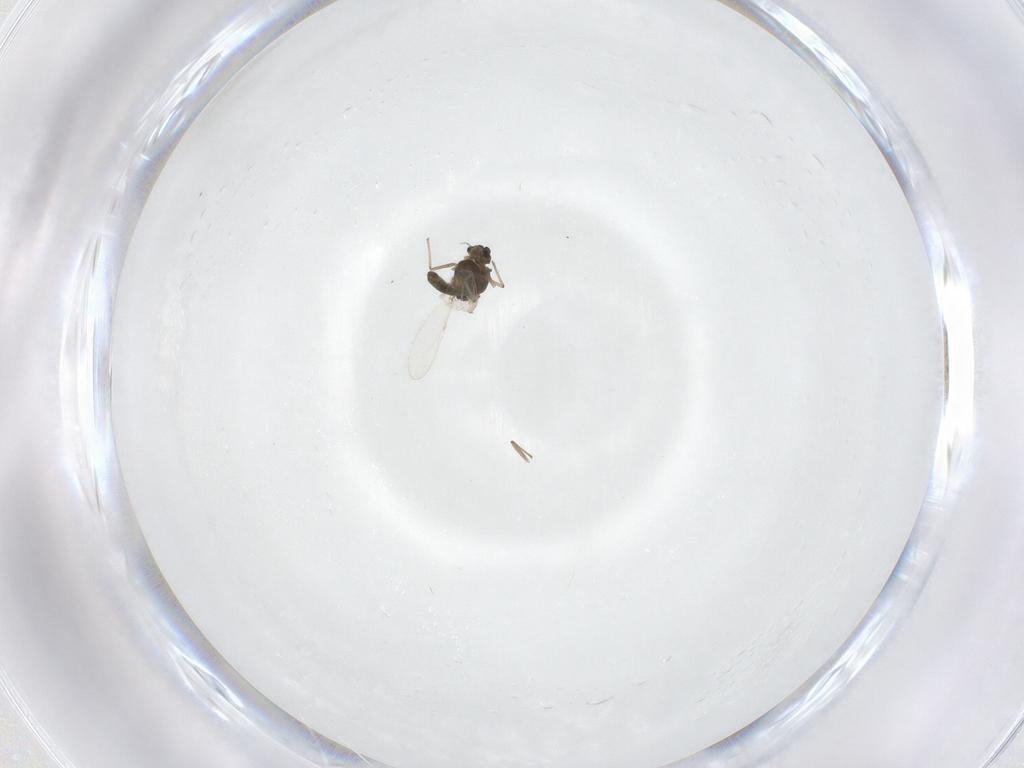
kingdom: Animalia
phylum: Arthropoda
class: Insecta
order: Diptera
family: Chironomidae
